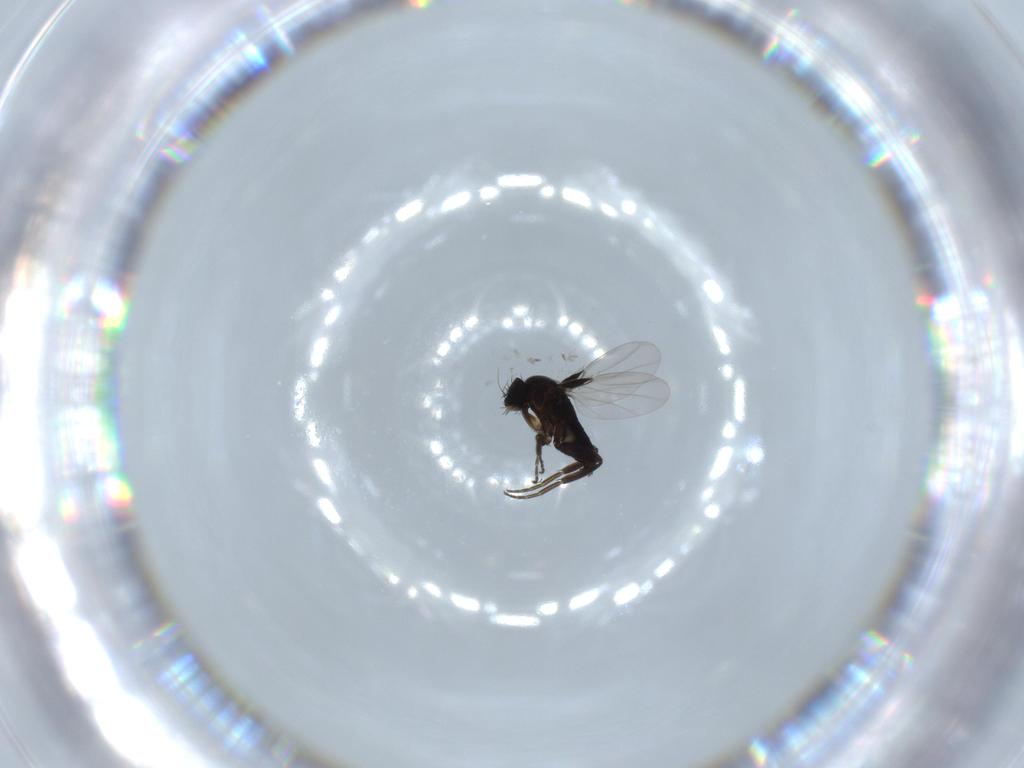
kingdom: Animalia
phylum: Arthropoda
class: Insecta
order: Diptera
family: Phoridae
